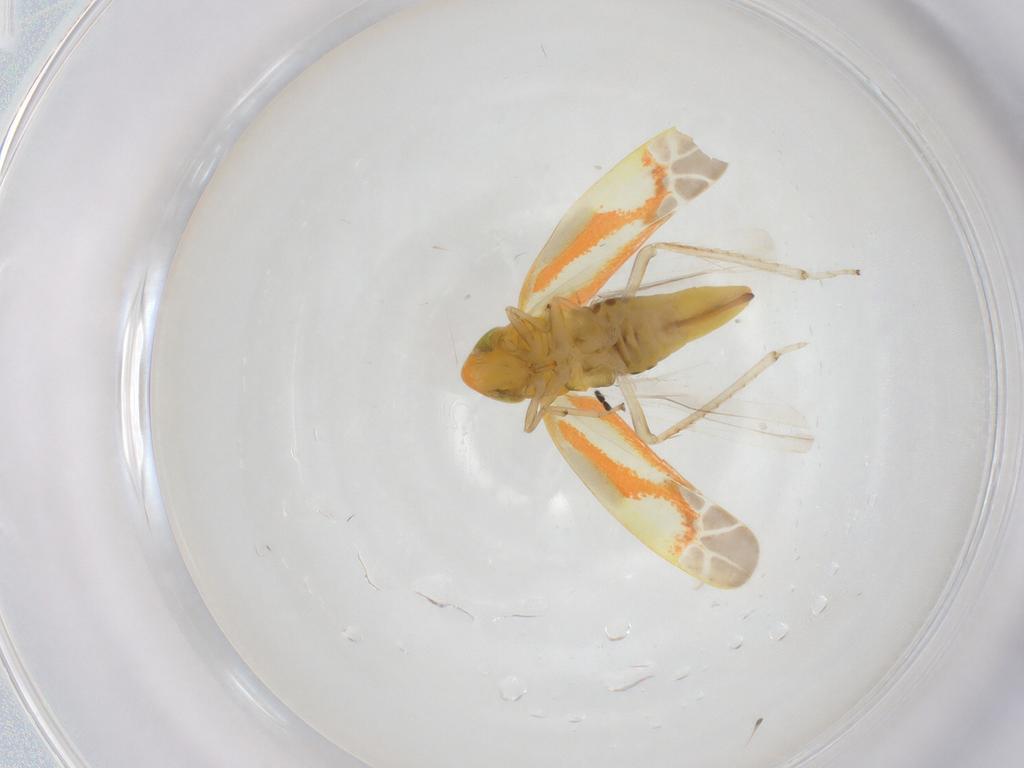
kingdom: Animalia
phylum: Arthropoda
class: Insecta
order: Hemiptera
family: Cicadellidae
